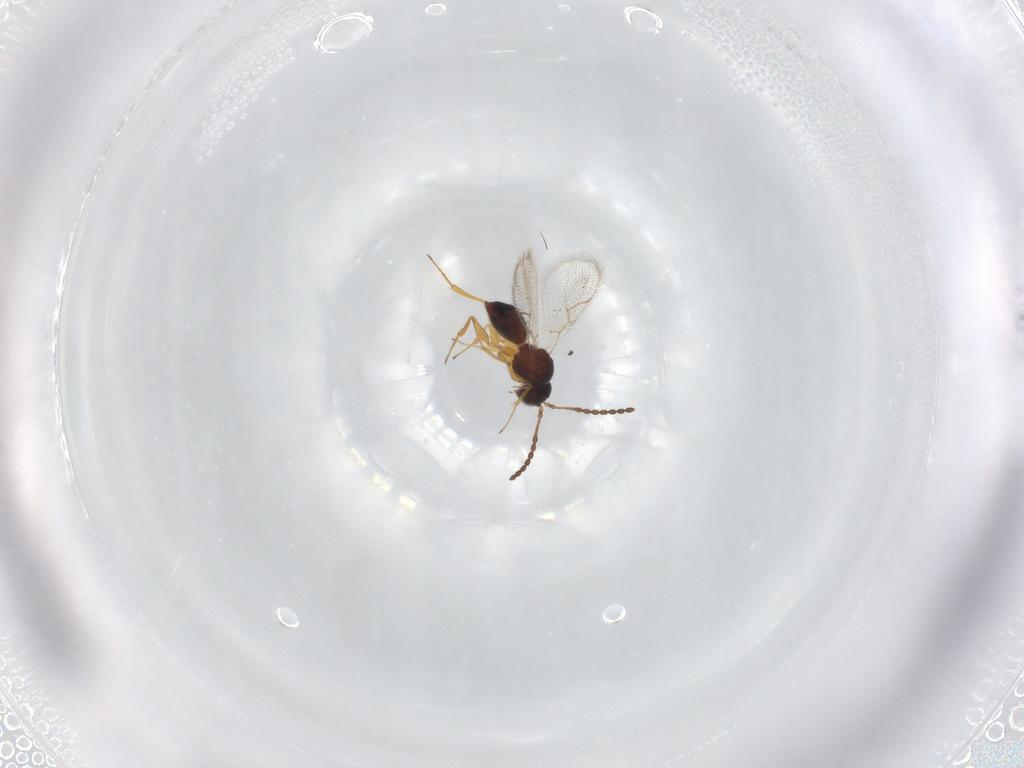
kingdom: Animalia
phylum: Arthropoda
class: Insecta
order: Hymenoptera
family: Figitidae
